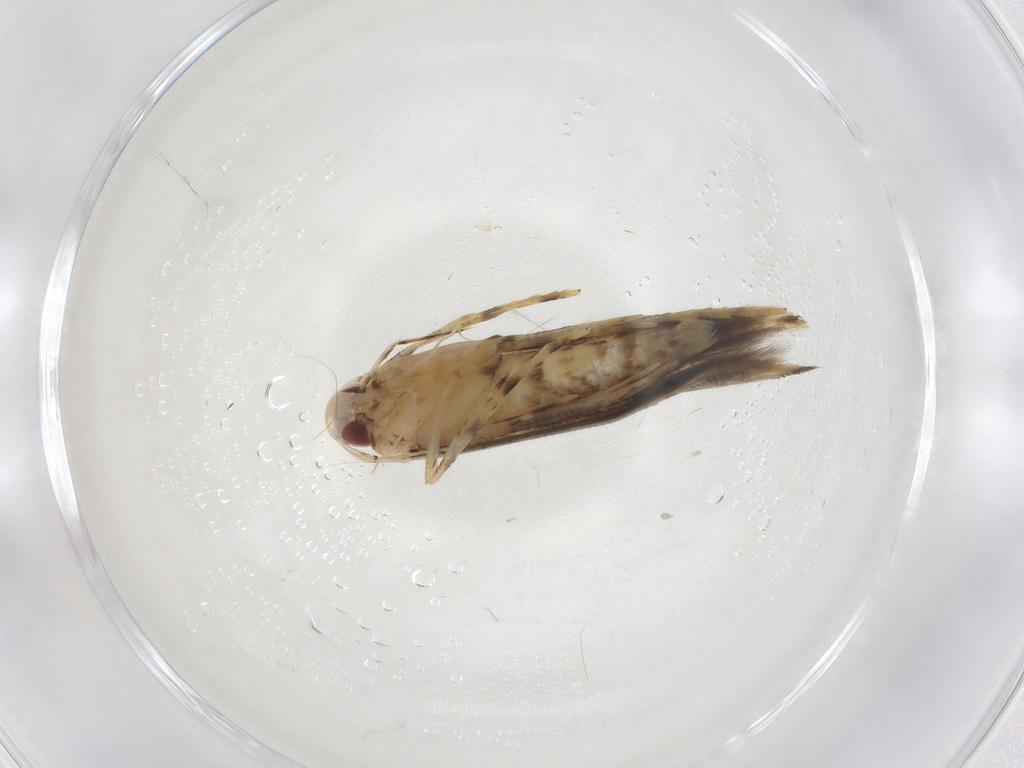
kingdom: Animalia
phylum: Arthropoda
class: Insecta
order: Lepidoptera
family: Cosmopterigidae
